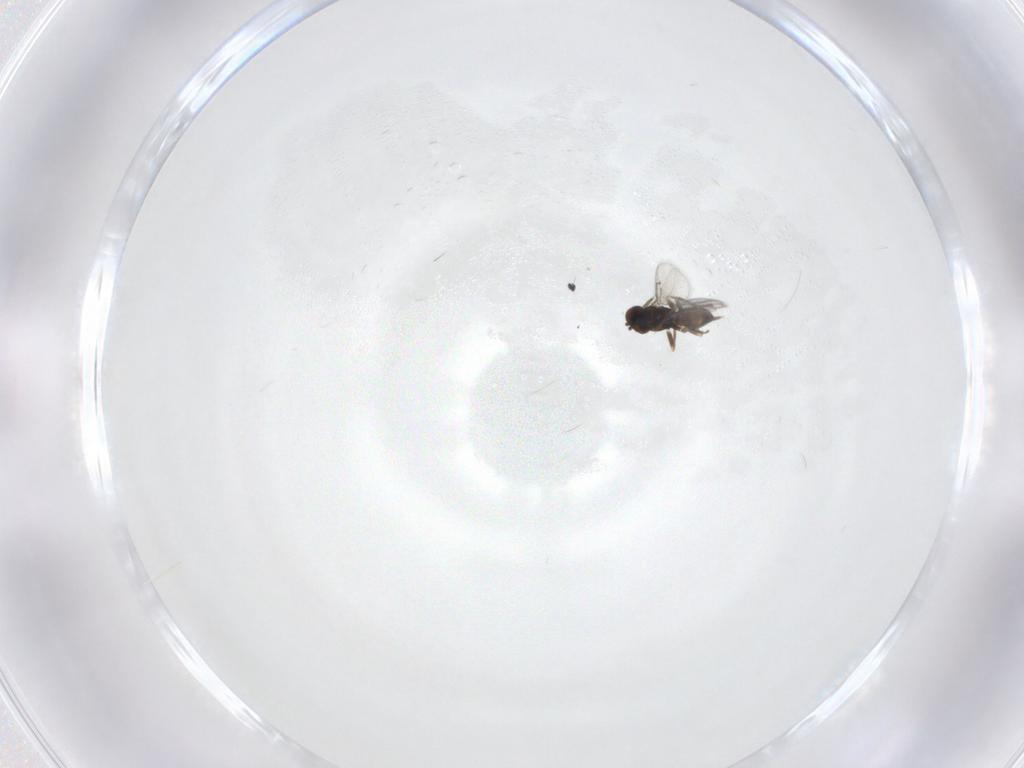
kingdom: Animalia
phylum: Arthropoda
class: Insecta
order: Hymenoptera
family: Eulophidae
